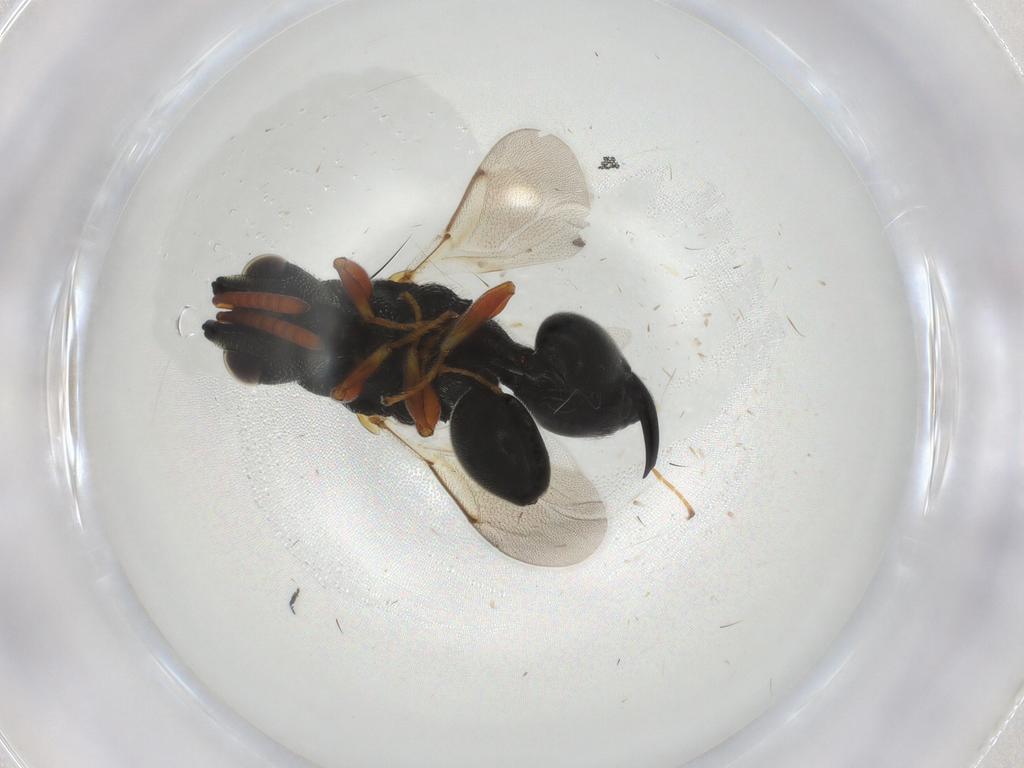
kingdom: Animalia
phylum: Arthropoda
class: Insecta
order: Hymenoptera
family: Chalcididae
